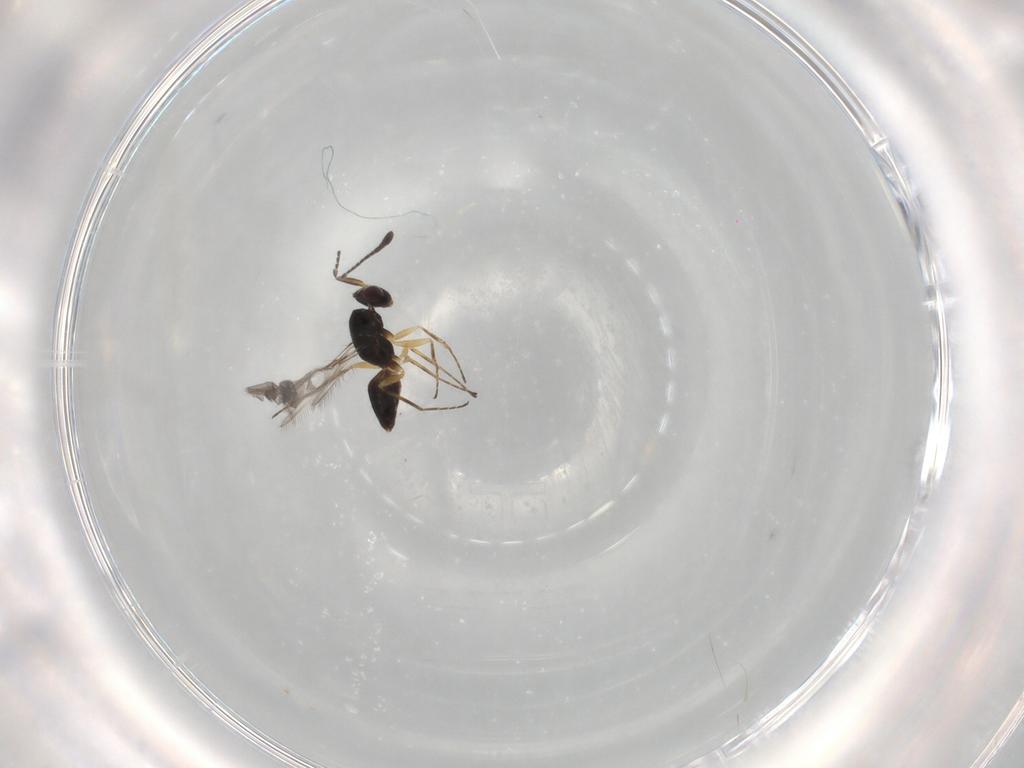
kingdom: Animalia
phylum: Arthropoda
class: Insecta
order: Hymenoptera
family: Mymaridae
